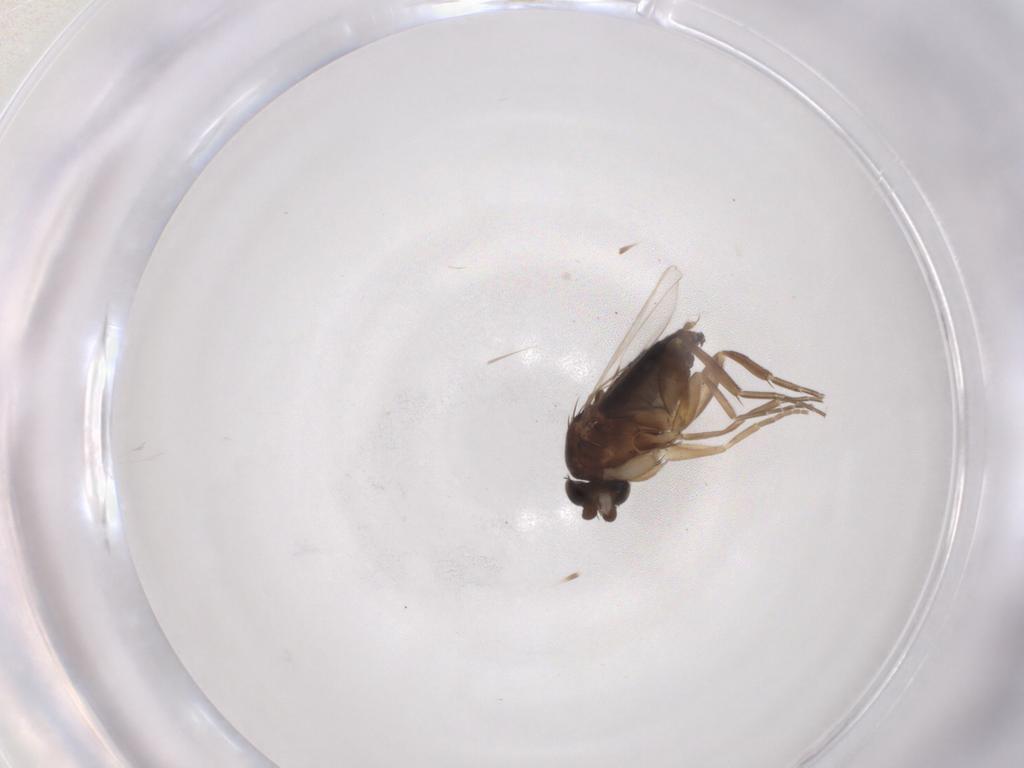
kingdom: Animalia
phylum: Arthropoda
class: Insecta
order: Diptera
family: Phoridae
